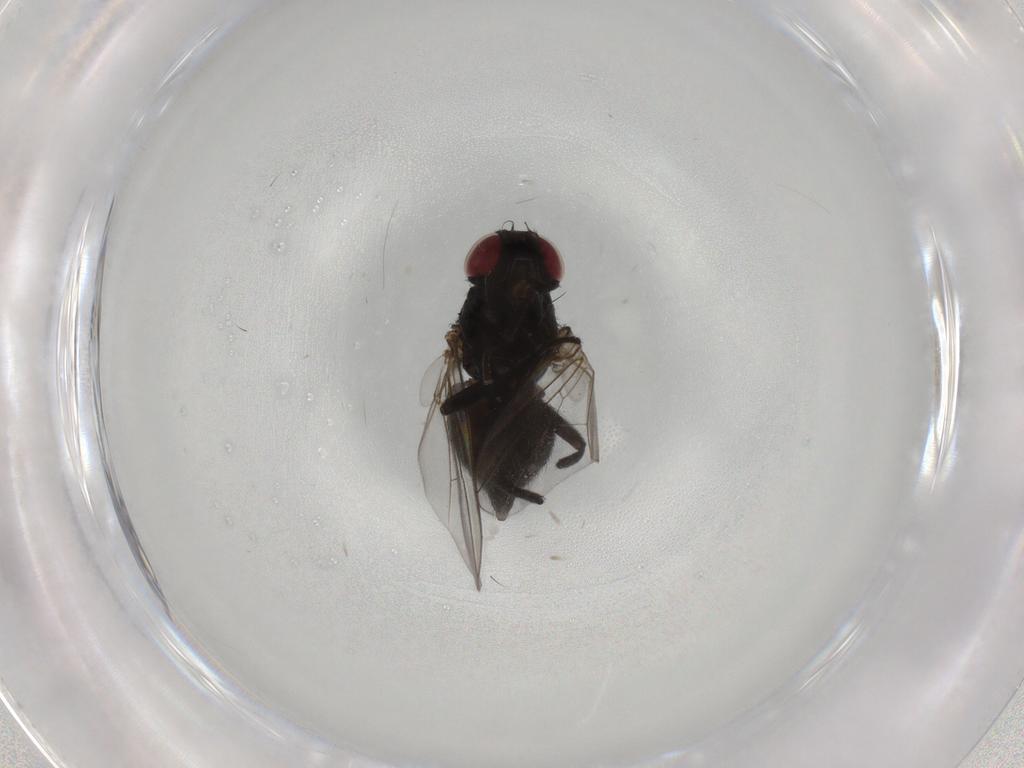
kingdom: Animalia
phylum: Arthropoda
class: Insecta
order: Diptera
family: Agromyzidae
